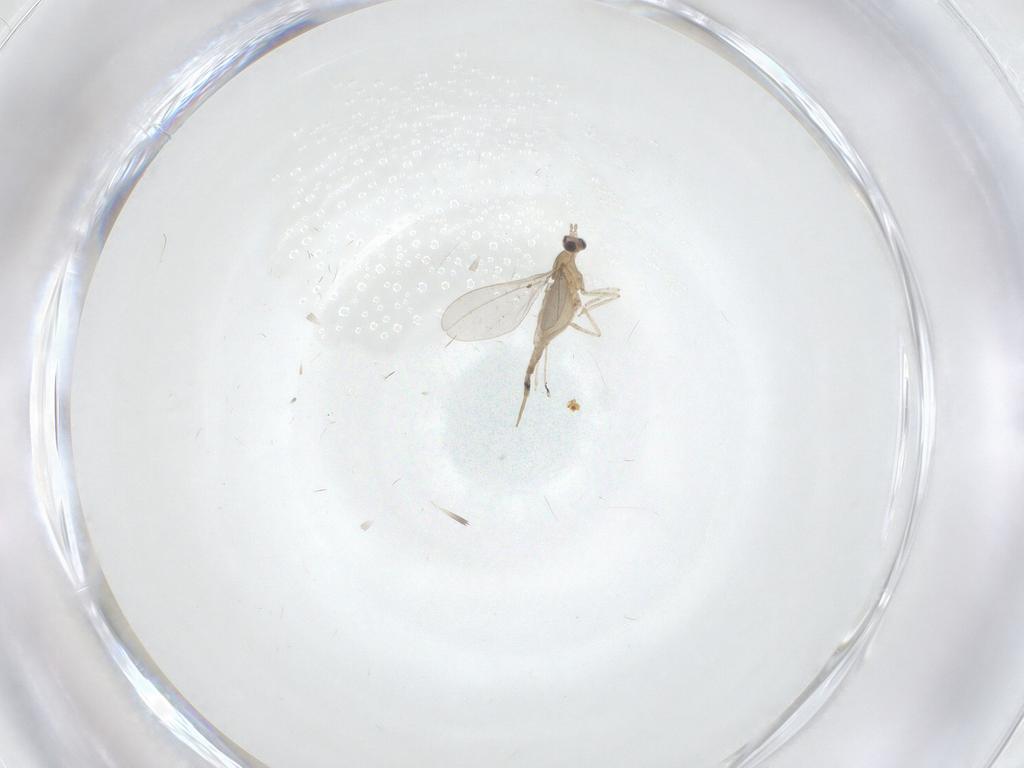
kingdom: Animalia
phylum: Arthropoda
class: Insecta
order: Diptera
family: Cecidomyiidae
